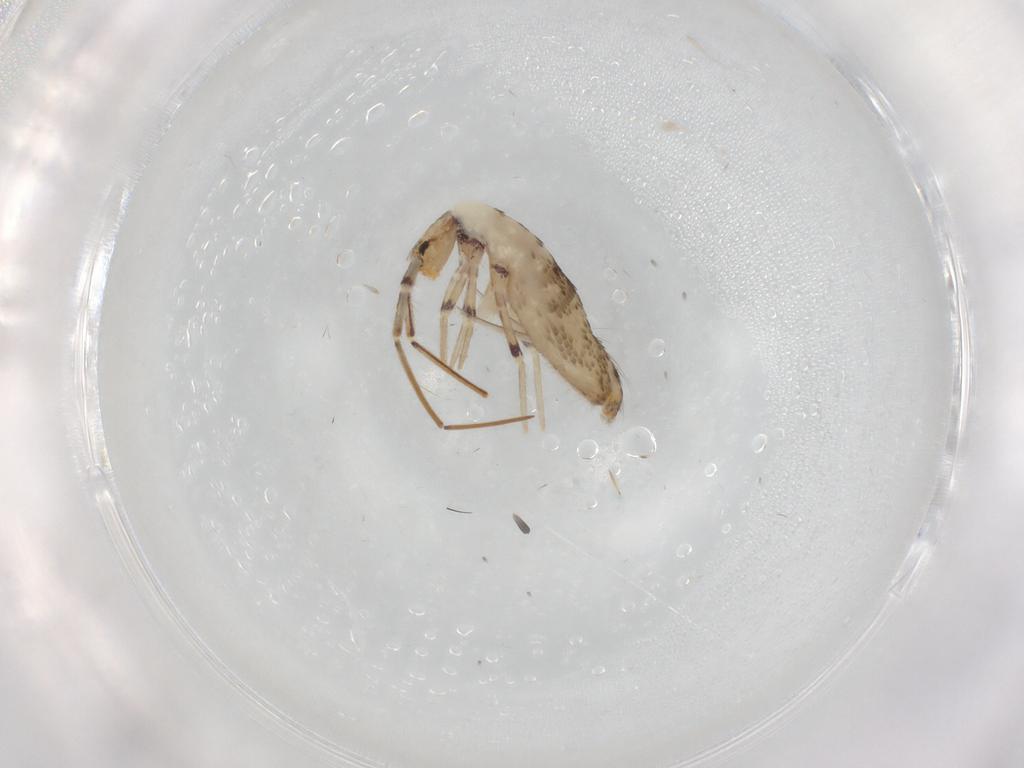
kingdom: Animalia
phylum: Arthropoda
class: Collembola
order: Entomobryomorpha
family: Entomobryidae
